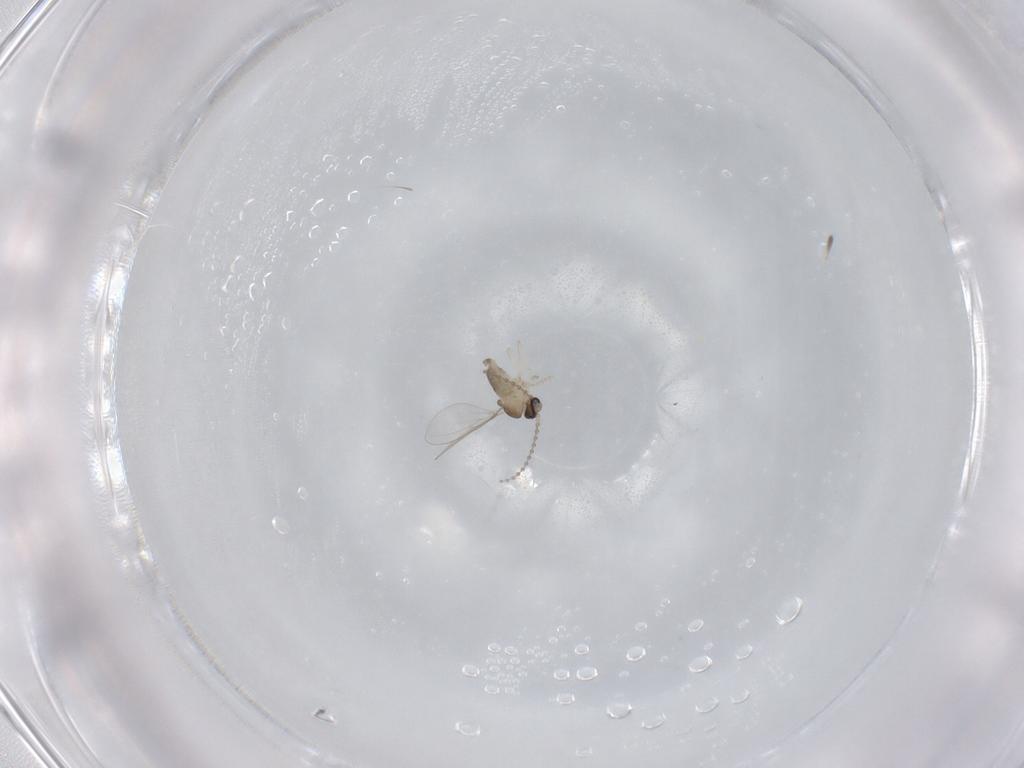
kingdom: Animalia
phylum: Arthropoda
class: Insecta
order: Diptera
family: Cecidomyiidae
